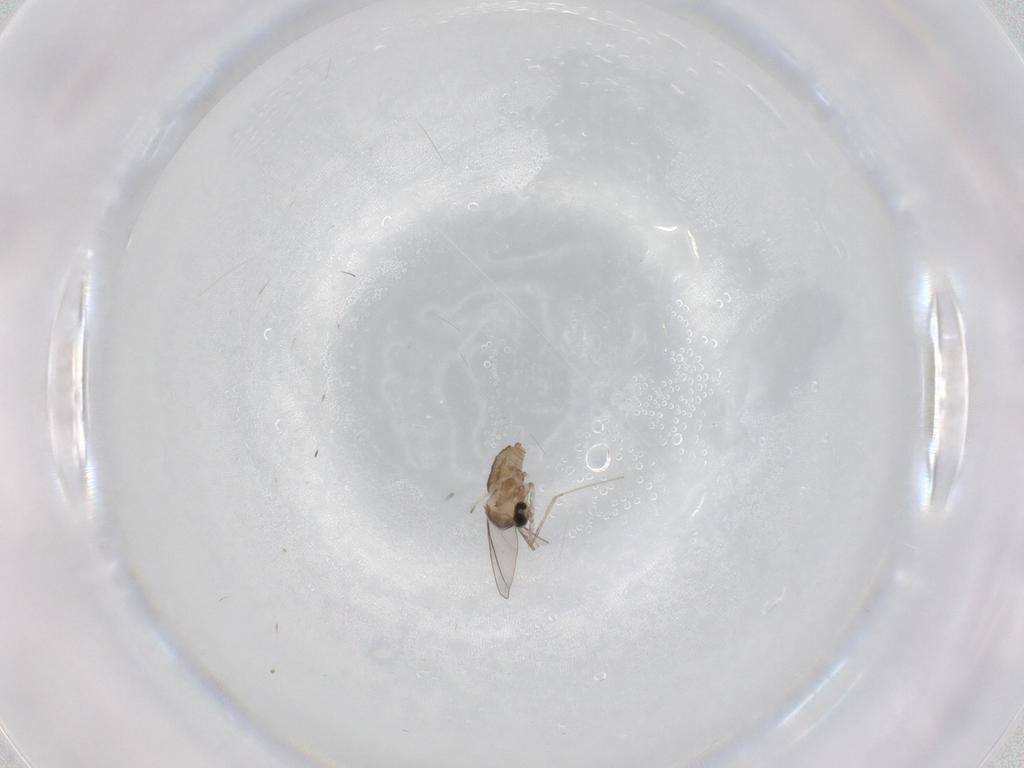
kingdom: Animalia
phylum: Arthropoda
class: Insecta
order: Diptera
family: Cecidomyiidae
